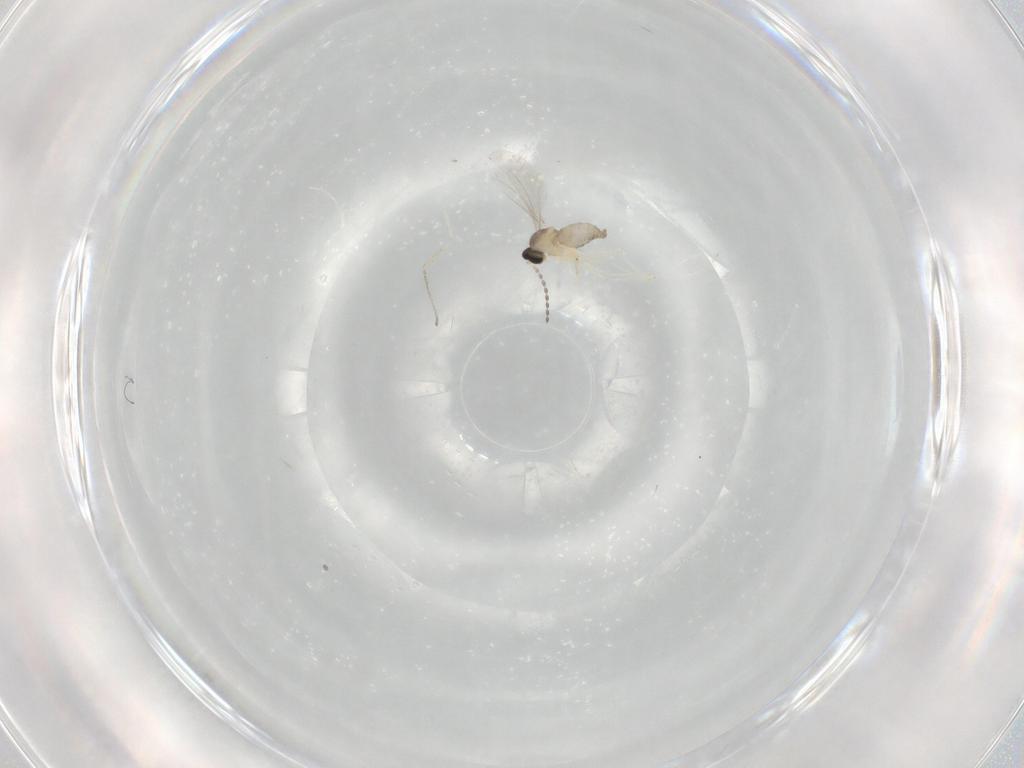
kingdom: Animalia
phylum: Arthropoda
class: Insecta
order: Diptera
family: Cecidomyiidae
